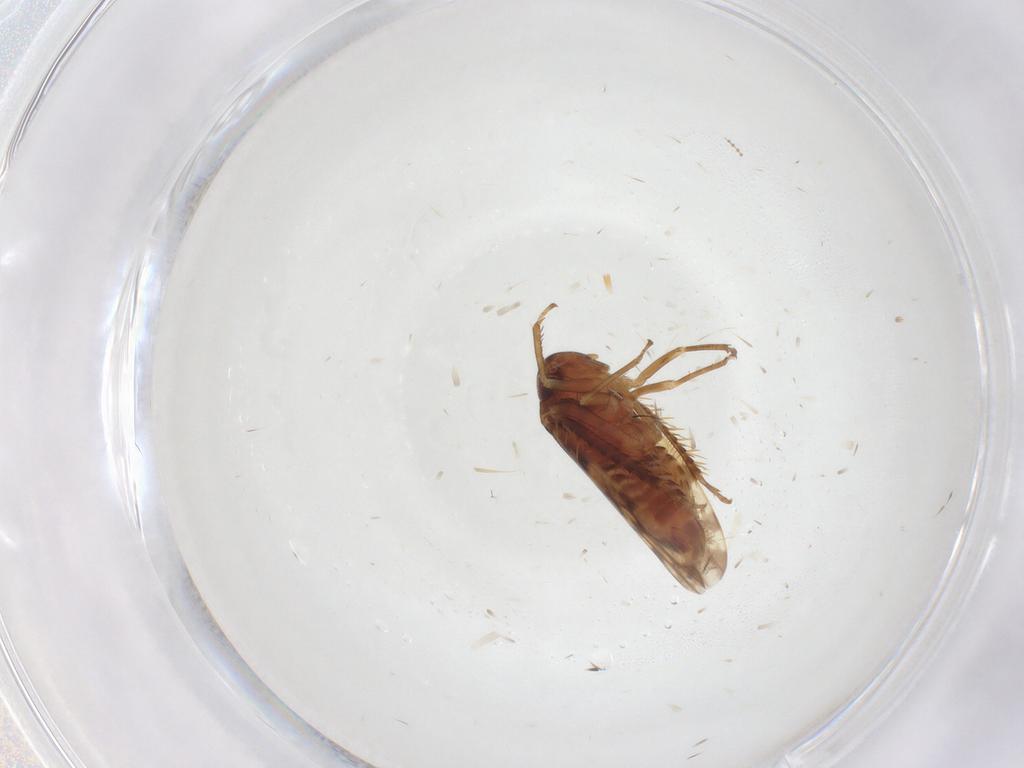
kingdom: Animalia
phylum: Arthropoda
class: Insecta
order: Hemiptera
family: Cicadellidae
